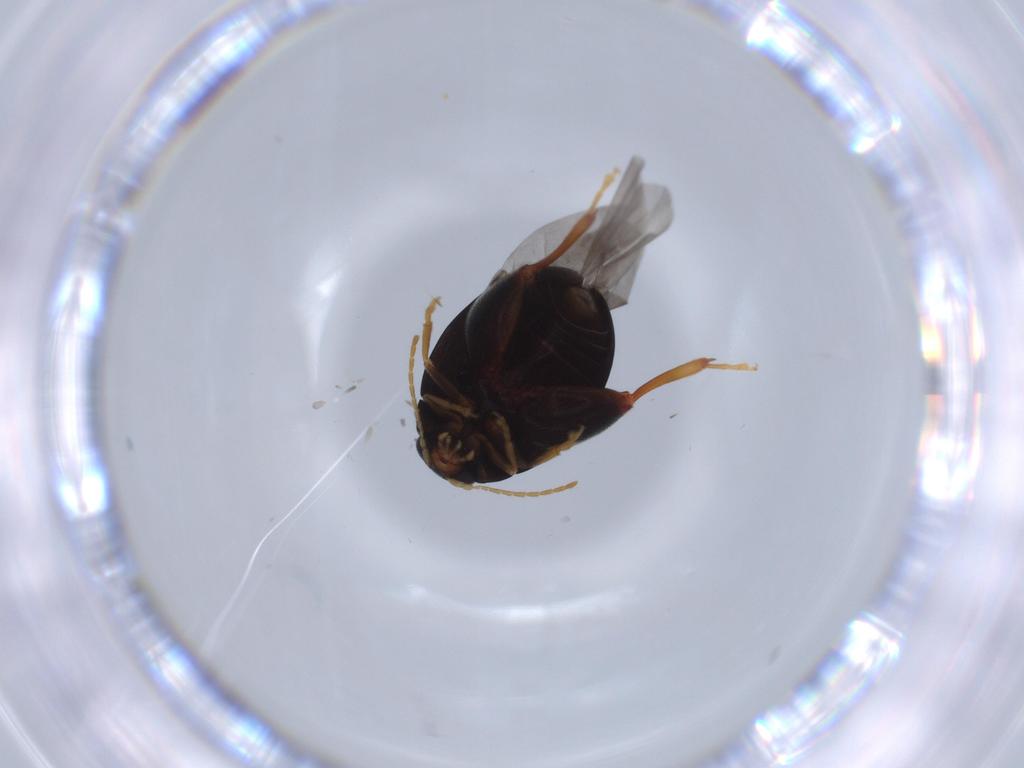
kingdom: Animalia
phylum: Arthropoda
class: Insecta
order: Coleoptera
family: Chrysomelidae
